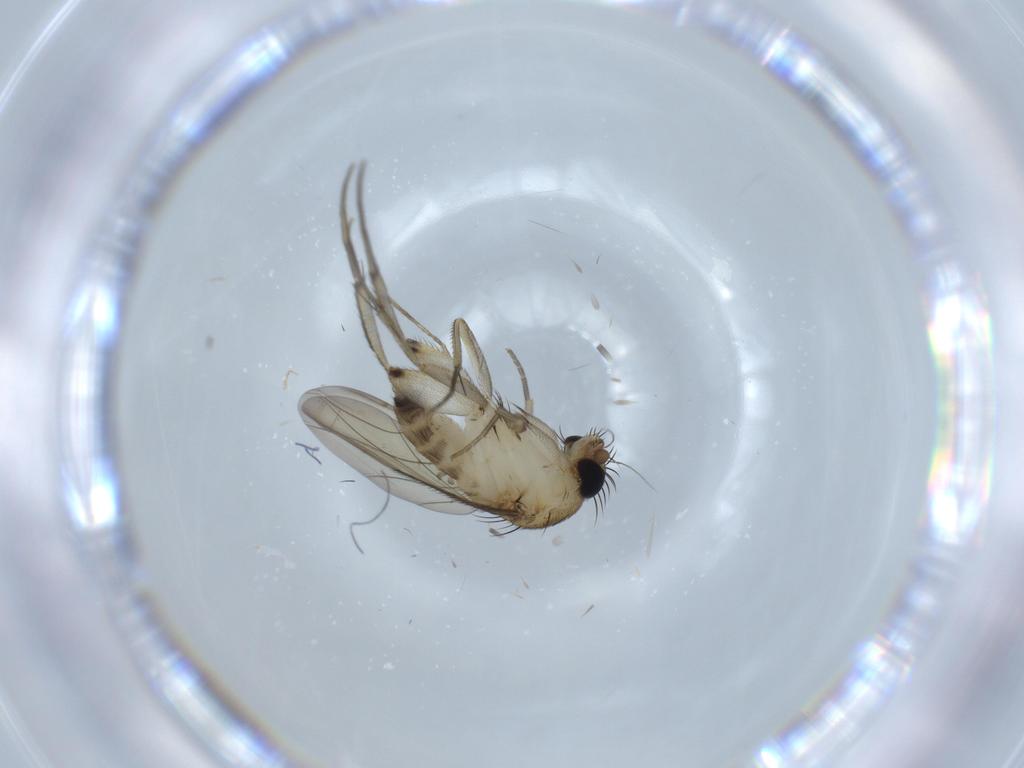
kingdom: Animalia
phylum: Arthropoda
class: Insecta
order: Diptera
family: Phoridae
